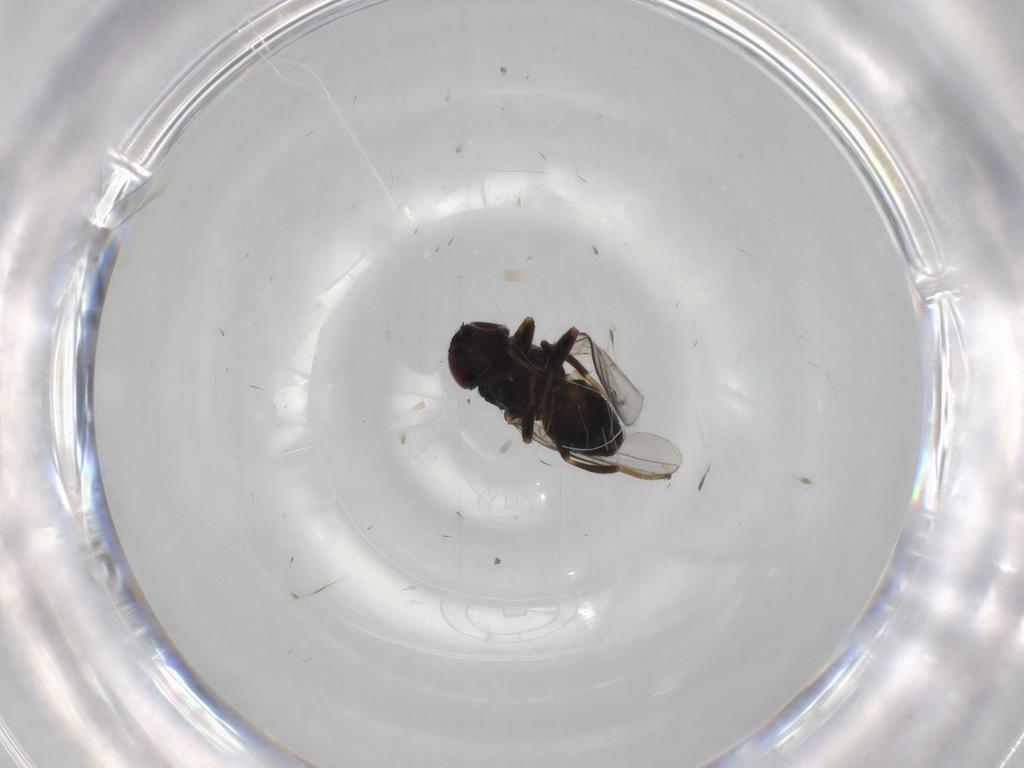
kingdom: Animalia
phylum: Arthropoda
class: Insecta
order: Diptera
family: Chloropidae
